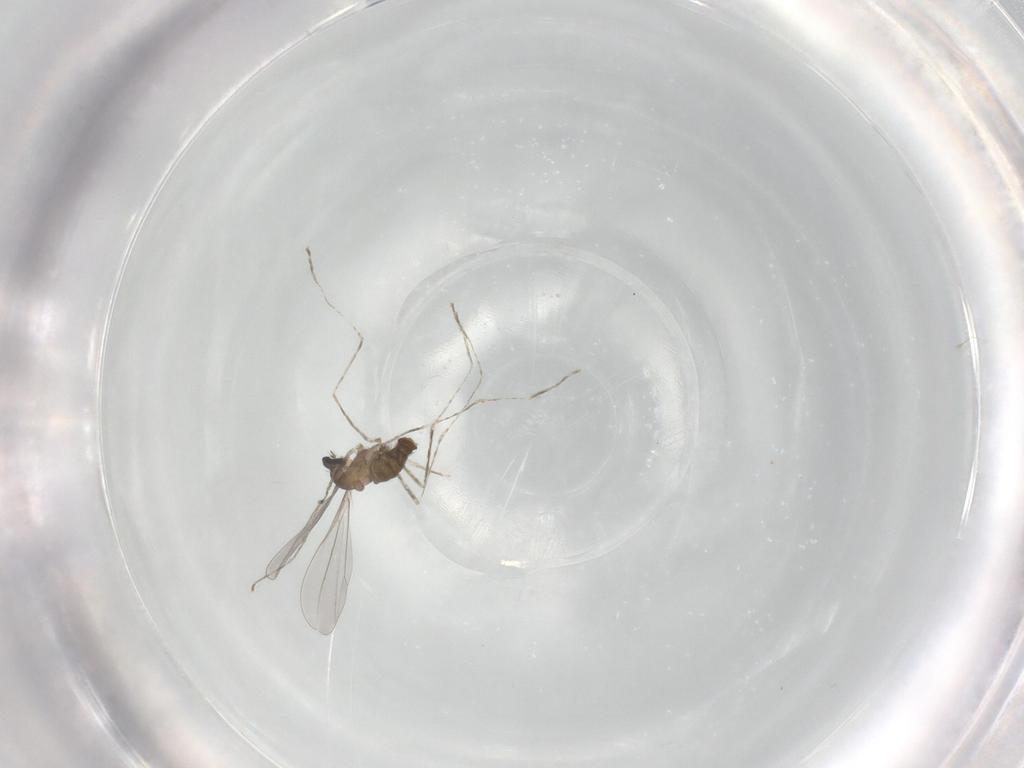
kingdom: Animalia
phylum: Arthropoda
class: Insecta
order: Diptera
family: Cecidomyiidae
